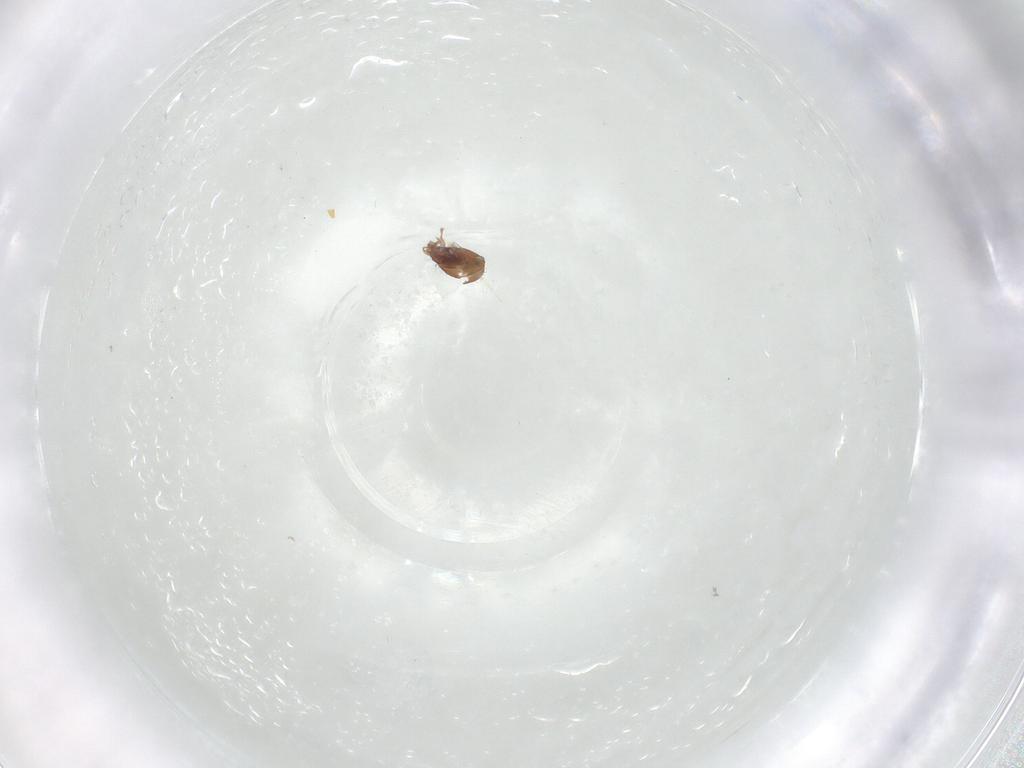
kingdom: Animalia
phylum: Arthropoda
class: Arachnida
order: Sarcoptiformes
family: Oribatulidae
